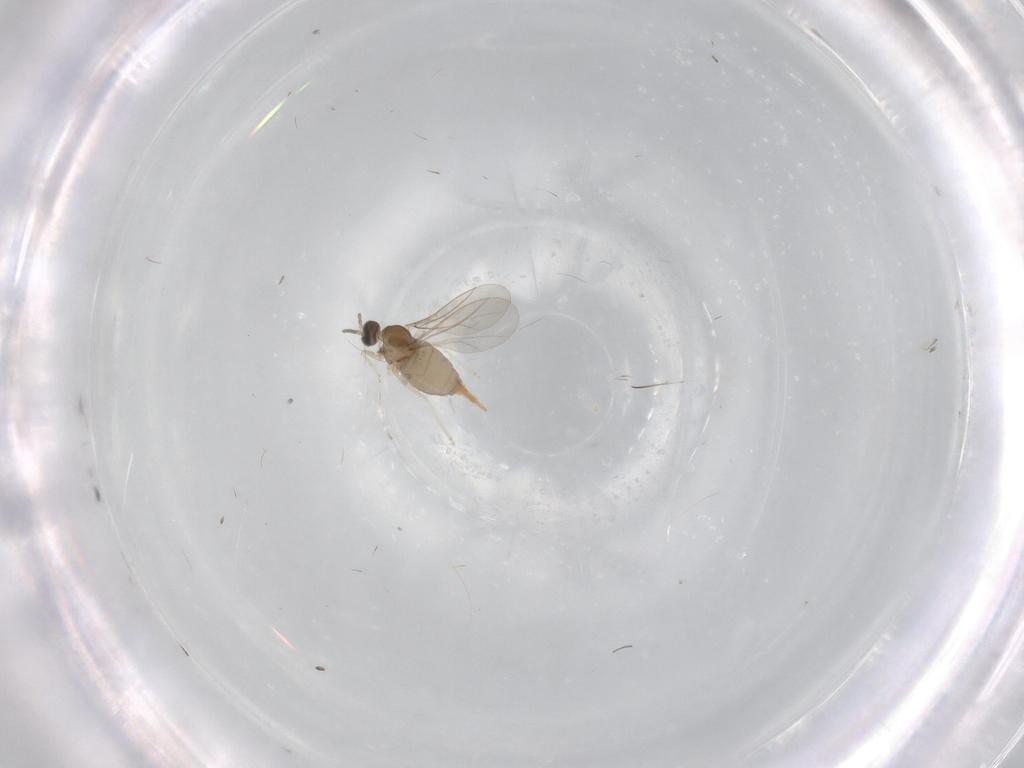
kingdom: Animalia
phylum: Arthropoda
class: Insecta
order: Diptera
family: Cecidomyiidae
